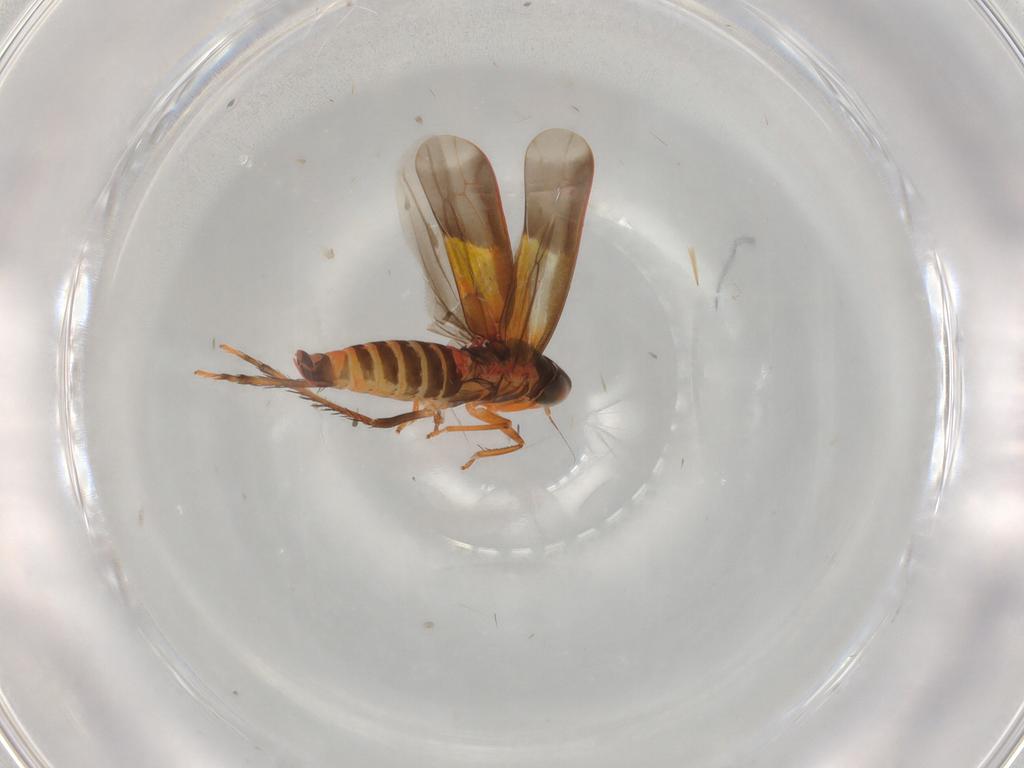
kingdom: Animalia
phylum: Arthropoda
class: Insecta
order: Hemiptera
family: Cicadellidae
